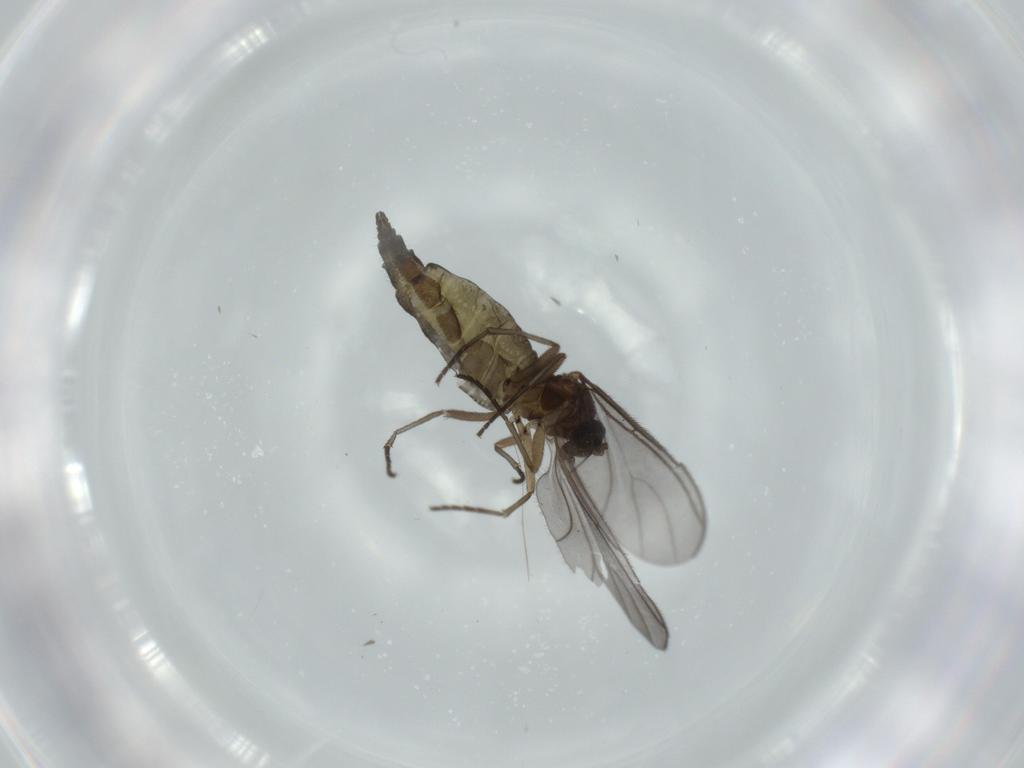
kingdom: Animalia
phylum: Arthropoda
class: Insecta
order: Diptera
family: Sciaridae
